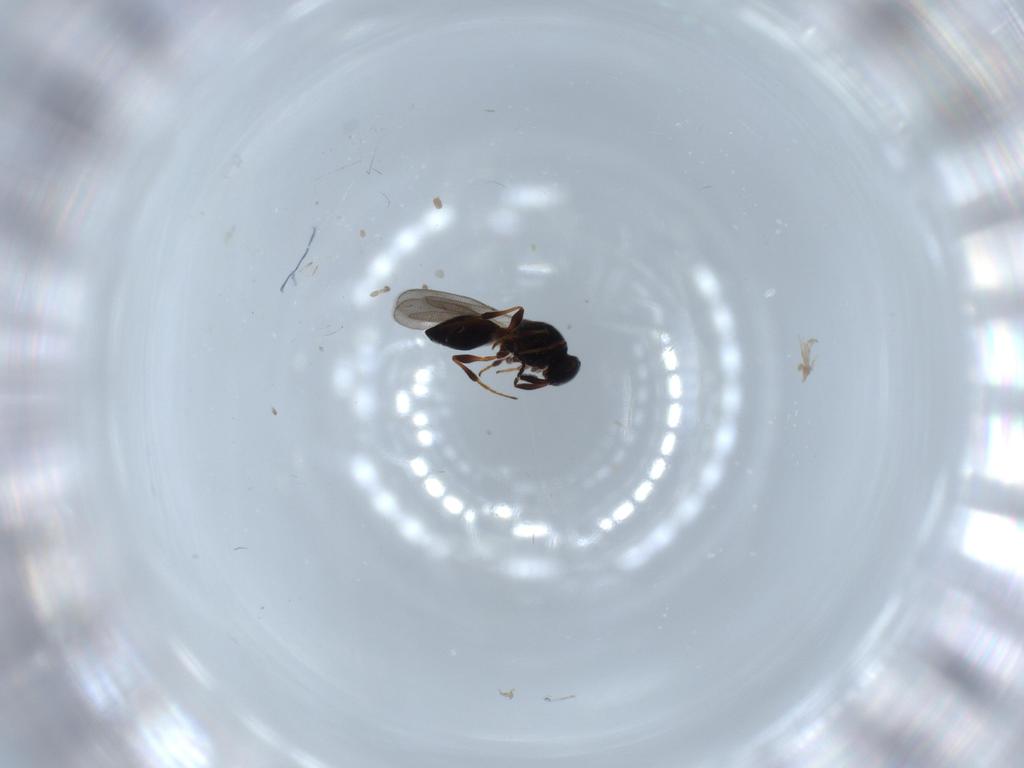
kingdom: Animalia
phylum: Arthropoda
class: Insecta
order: Hymenoptera
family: Platygastridae
